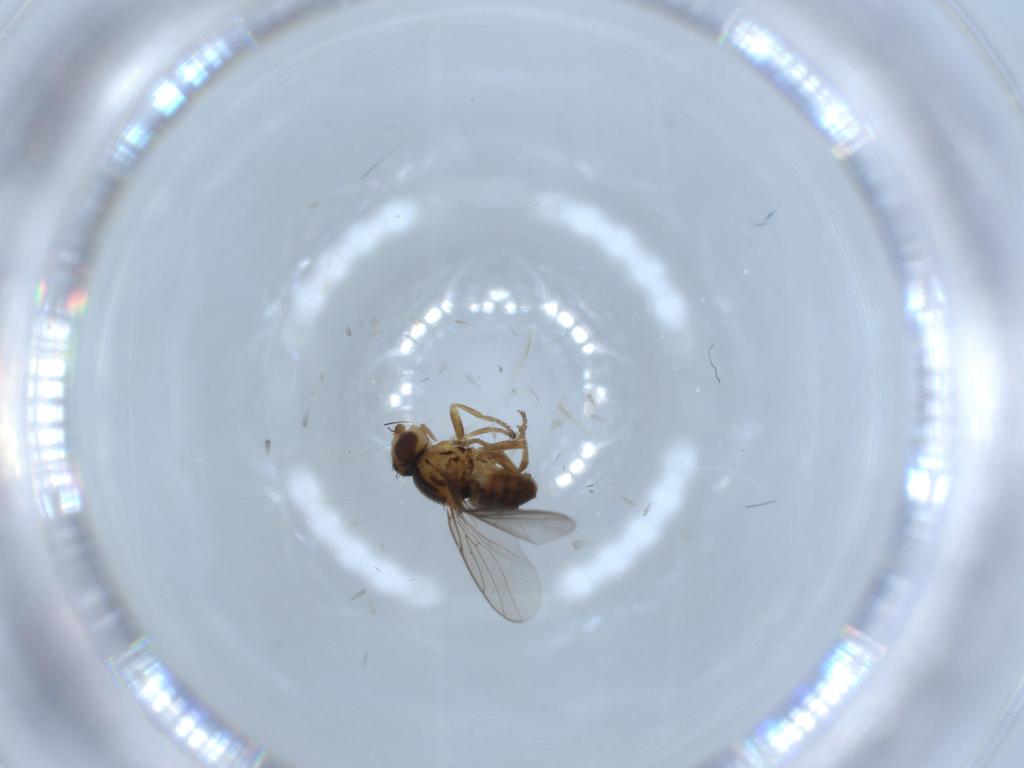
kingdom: Animalia
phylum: Arthropoda
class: Insecta
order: Diptera
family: Chloropidae
